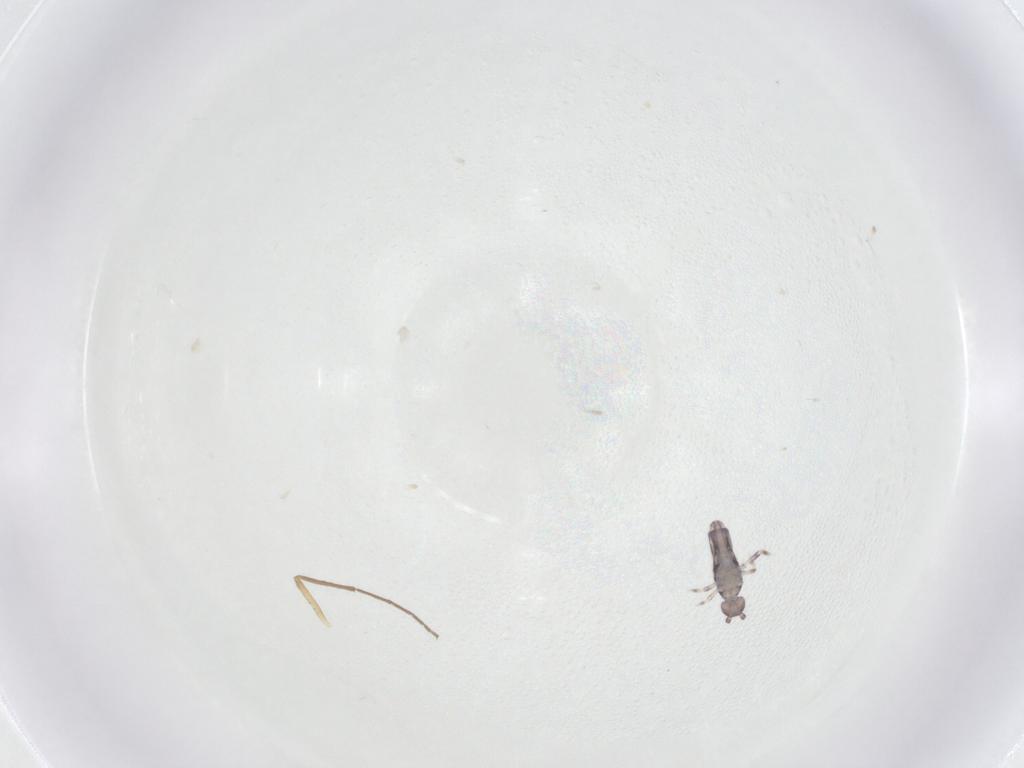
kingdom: Animalia
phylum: Arthropoda
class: Insecta
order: Diptera
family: Chironomidae
